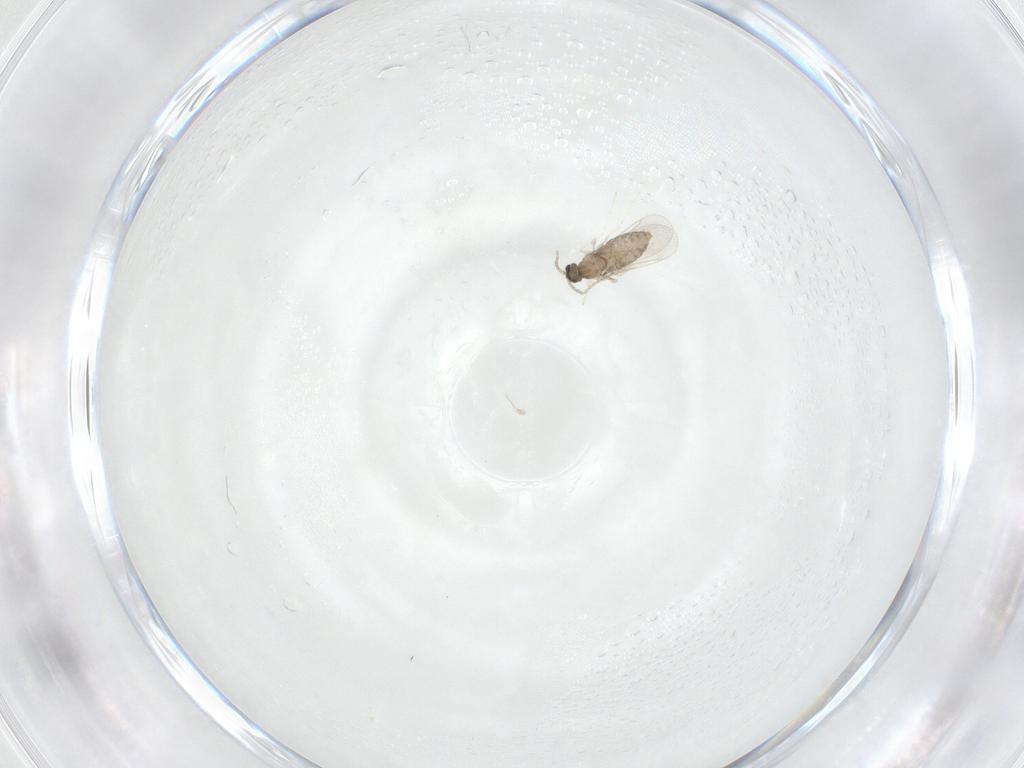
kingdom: Animalia
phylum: Arthropoda
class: Insecta
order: Diptera
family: Cecidomyiidae
